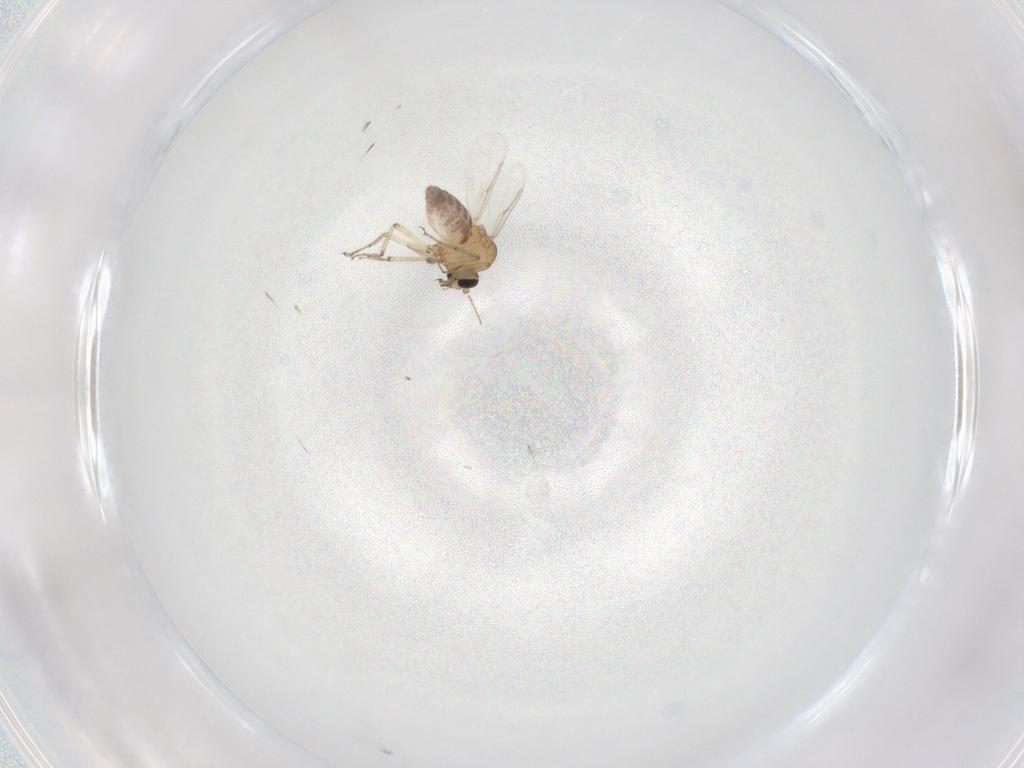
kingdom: Animalia
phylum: Arthropoda
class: Insecta
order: Diptera
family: Ceratopogonidae
